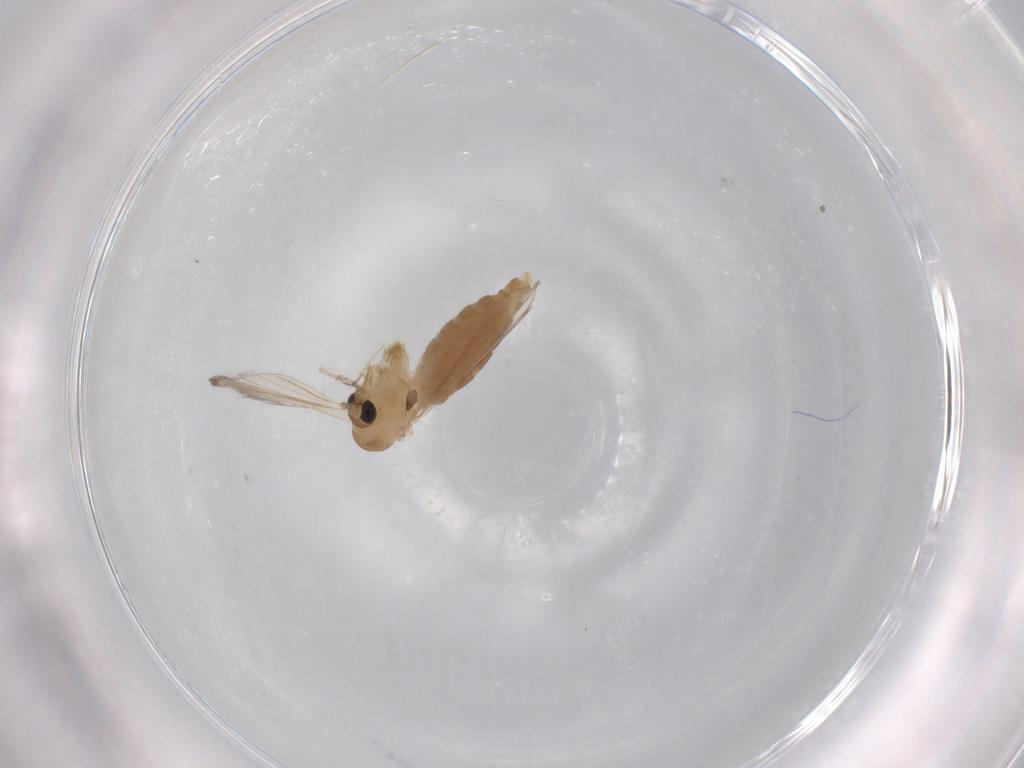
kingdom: Animalia
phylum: Arthropoda
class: Insecta
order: Diptera
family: Psychodidae
